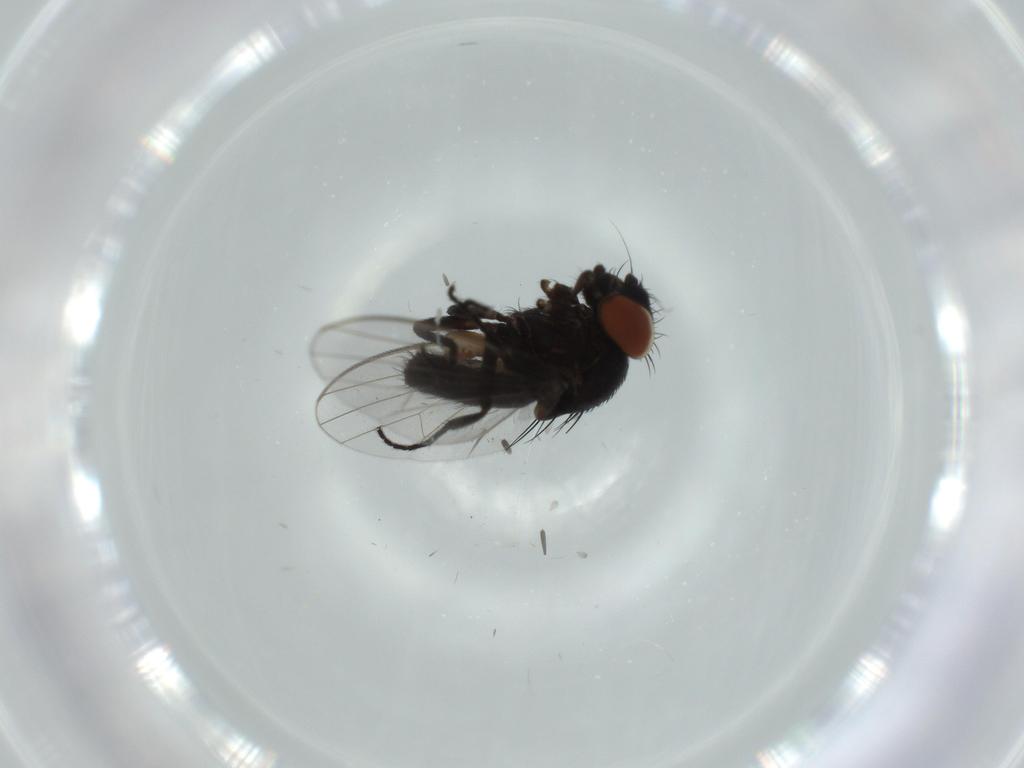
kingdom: Animalia
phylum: Arthropoda
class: Insecta
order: Diptera
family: Milichiidae
